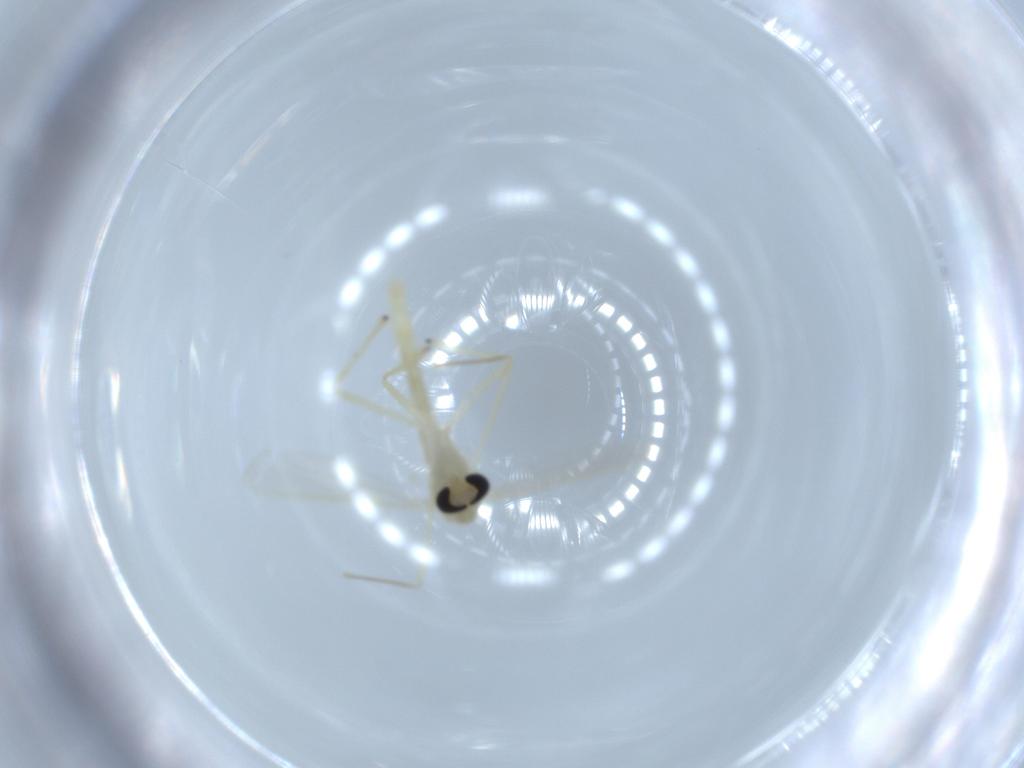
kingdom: Animalia
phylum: Arthropoda
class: Insecta
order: Diptera
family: Chironomidae
